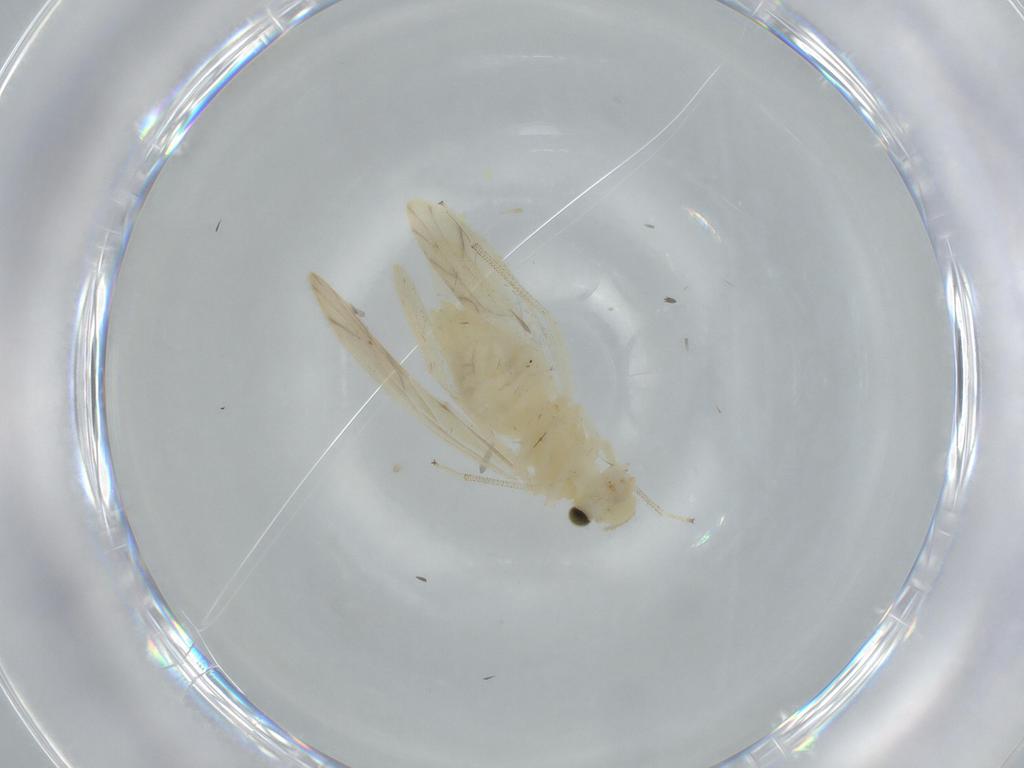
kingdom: Animalia
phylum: Arthropoda
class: Insecta
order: Psocodea
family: Caeciliusidae
